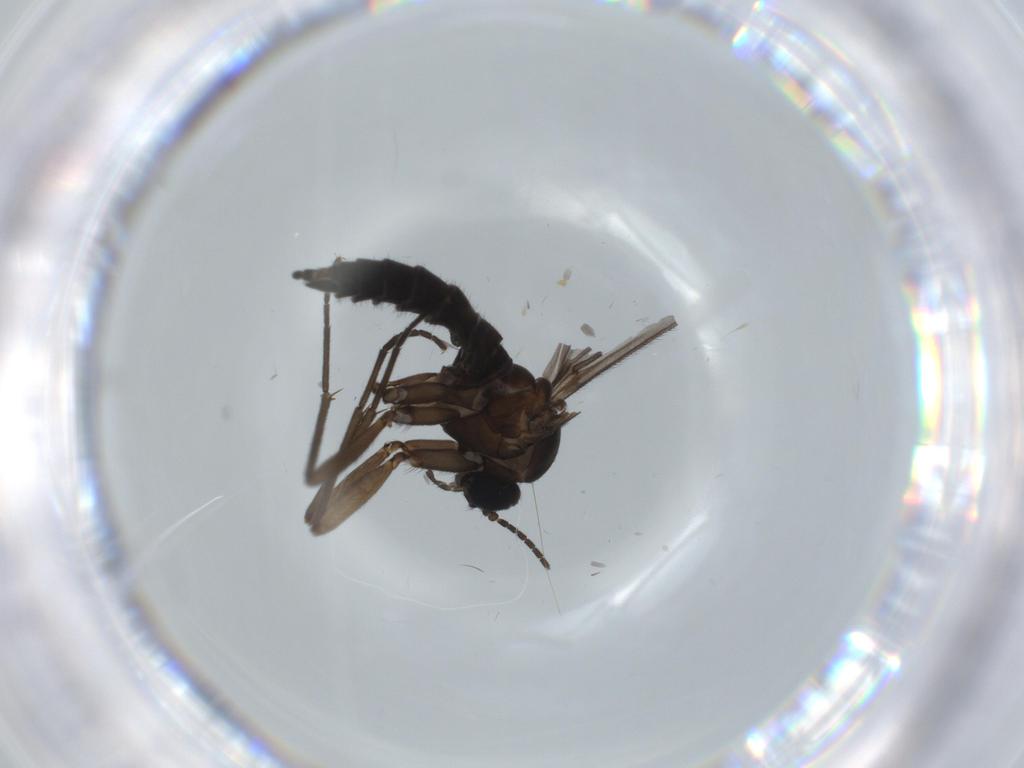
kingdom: Animalia
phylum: Arthropoda
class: Insecta
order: Diptera
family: Sciaridae
